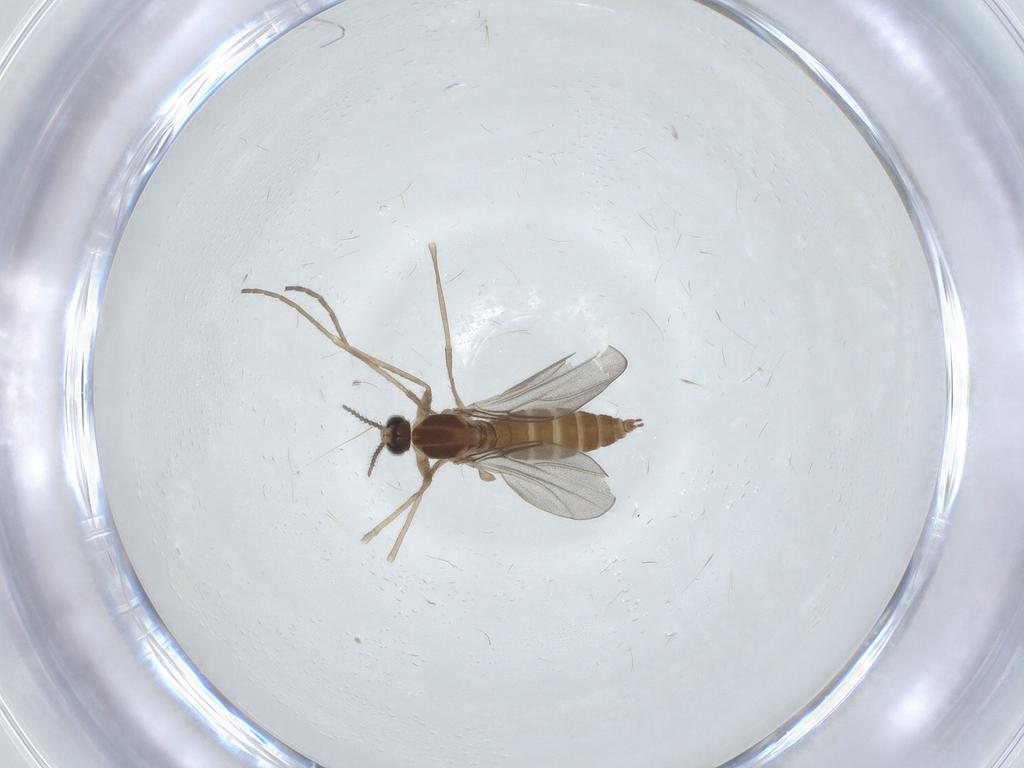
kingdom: Animalia
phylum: Arthropoda
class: Insecta
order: Diptera
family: Cecidomyiidae
